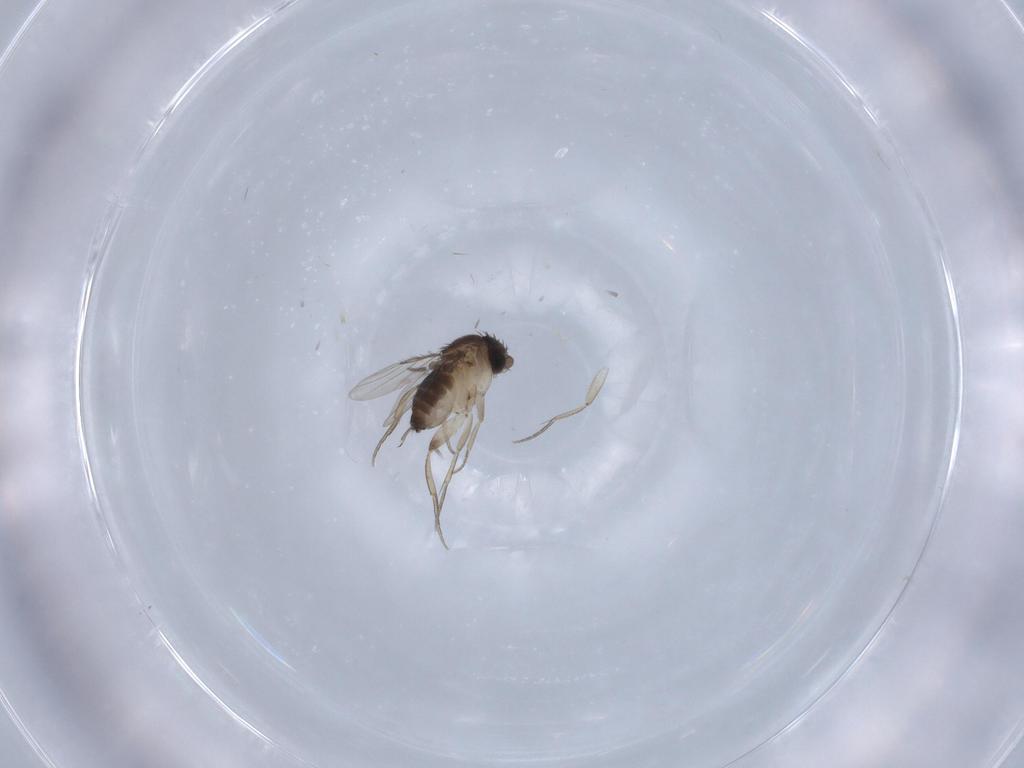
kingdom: Animalia
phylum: Arthropoda
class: Insecta
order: Diptera
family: Phoridae
